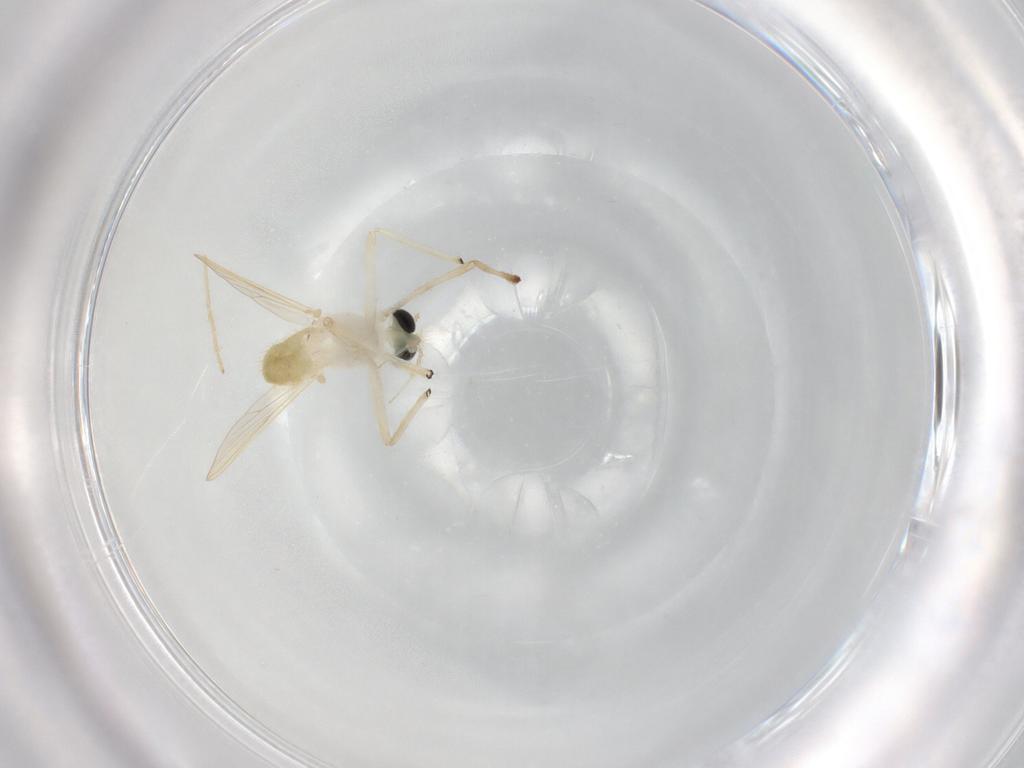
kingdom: Animalia
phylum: Arthropoda
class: Insecta
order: Diptera
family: Chironomidae
